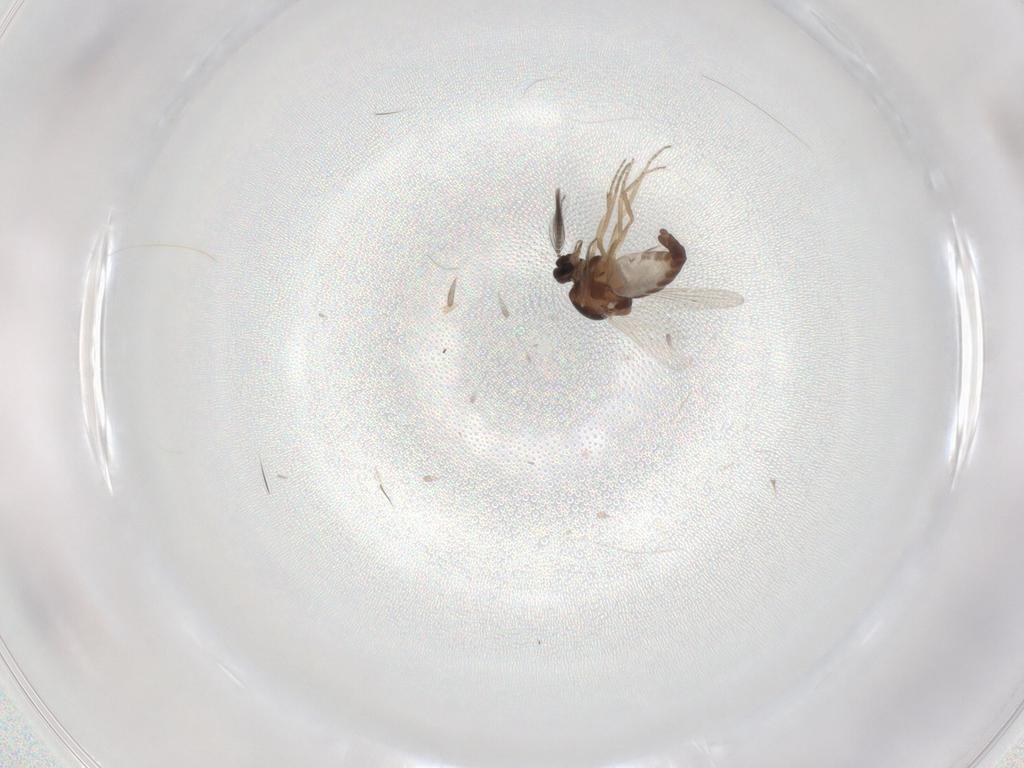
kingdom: Animalia
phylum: Arthropoda
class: Insecta
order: Diptera
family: Ceratopogonidae
